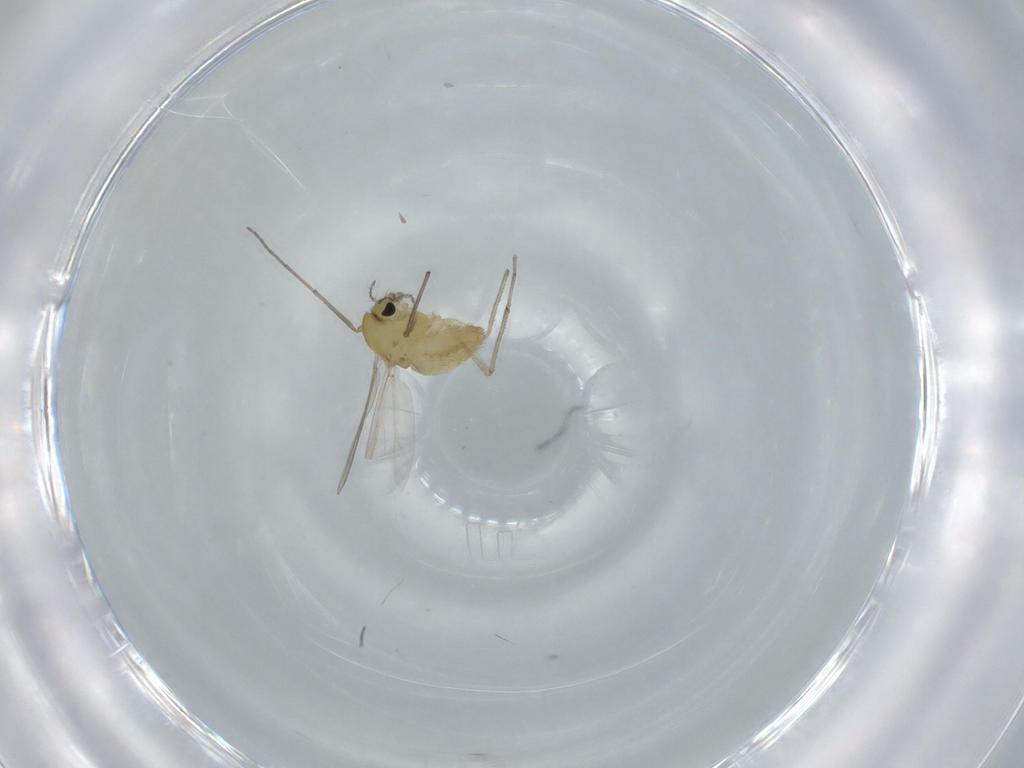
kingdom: Animalia
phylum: Arthropoda
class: Insecta
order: Diptera
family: Chironomidae
